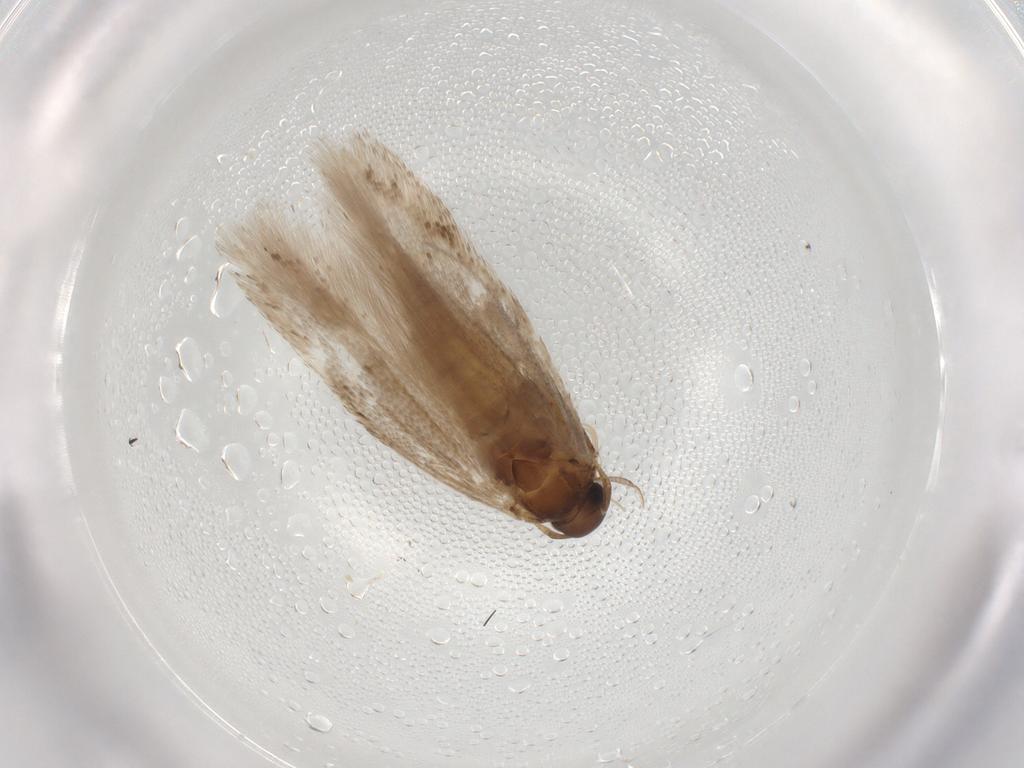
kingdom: Animalia
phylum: Arthropoda
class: Insecta
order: Lepidoptera
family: Gelechiidae
